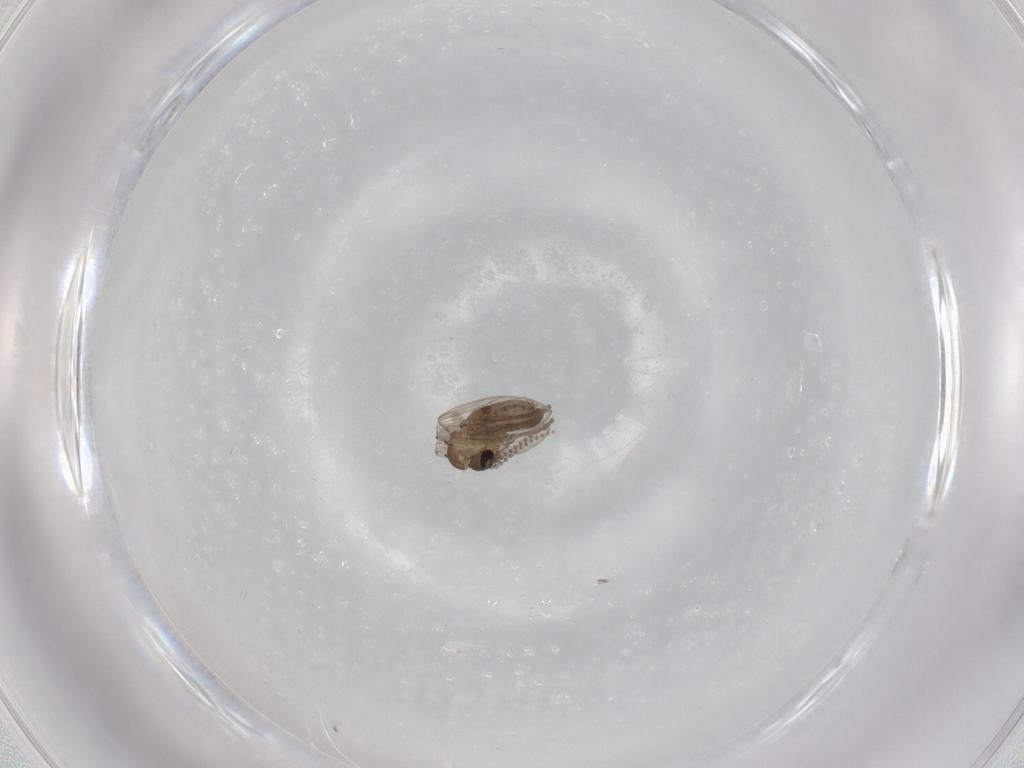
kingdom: Animalia
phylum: Arthropoda
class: Insecta
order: Diptera
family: Psychodidae
